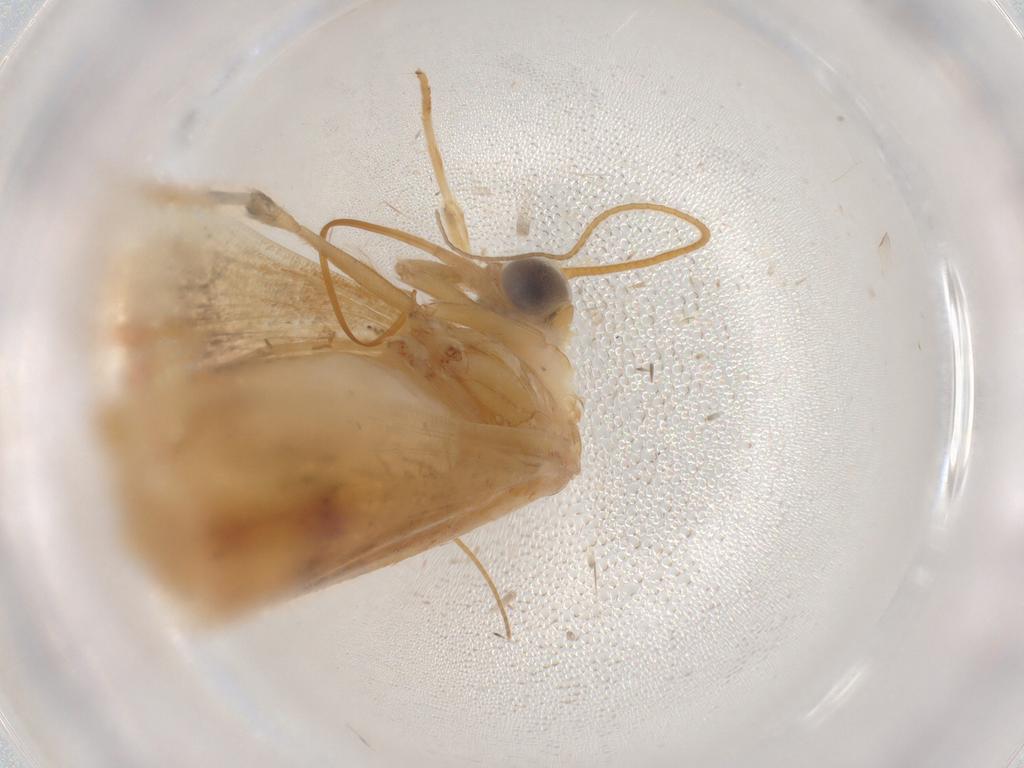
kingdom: Animalia
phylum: Arthropoda
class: Insecta
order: Lepidoptera
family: Crambidae
